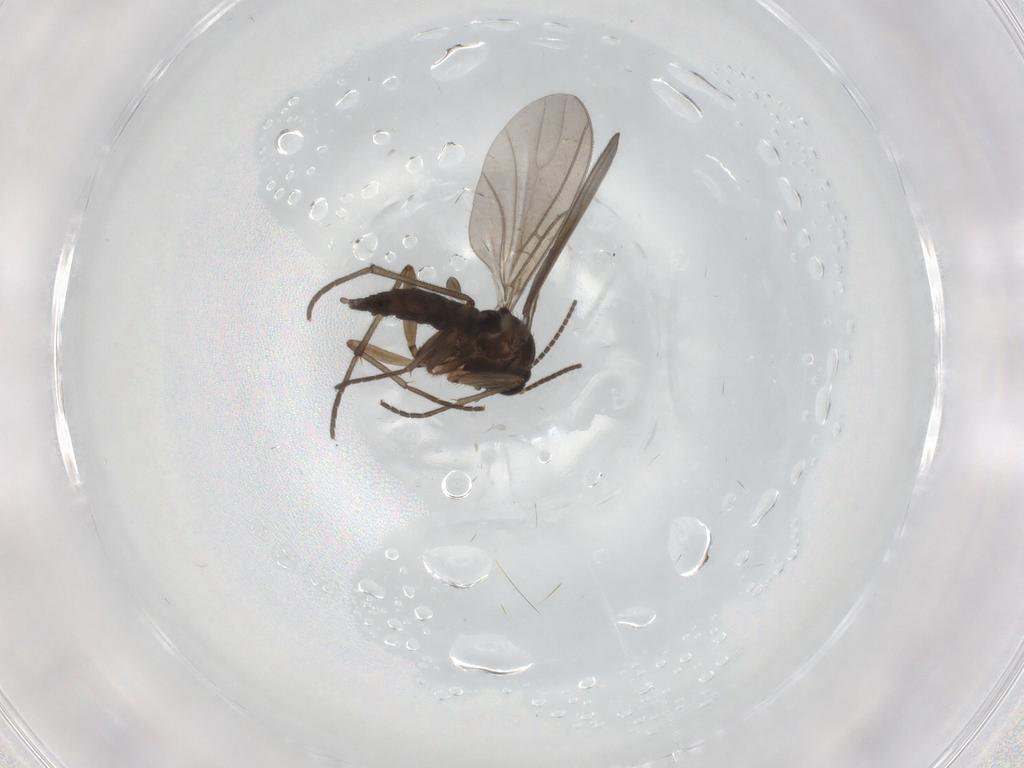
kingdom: Animalia
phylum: Arthropoda
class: Insecta
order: Diptera
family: Sciaridae
